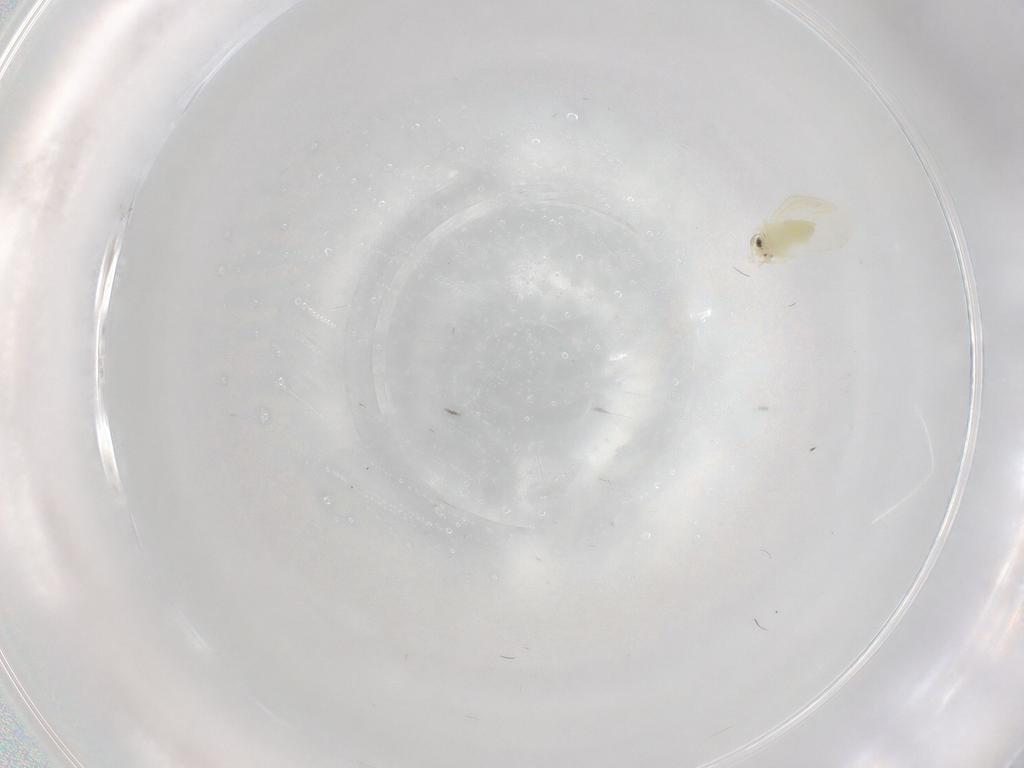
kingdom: Animalia
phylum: Arthropoda
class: Insecta
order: Hemiptera
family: Aleyrodidae
